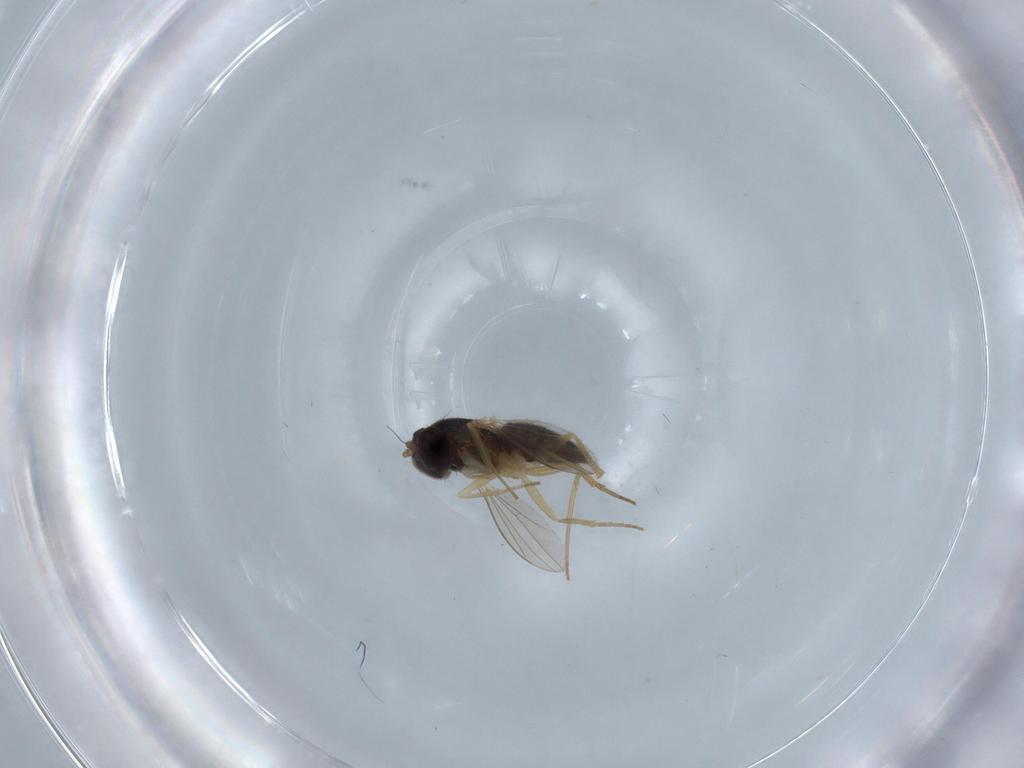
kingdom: Animalia
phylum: Arthropoda
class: Insecta
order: Diptera
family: Dolichopodidae
